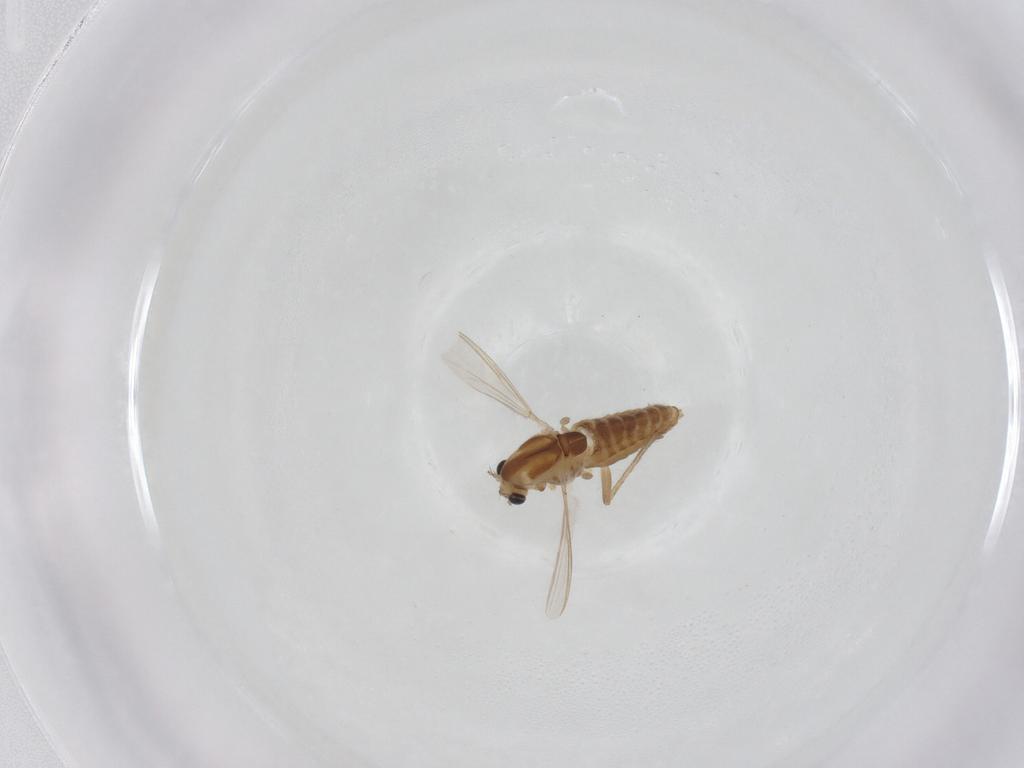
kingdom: Animalia
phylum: Arthropoda
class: Insecta
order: Diptera
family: Chironomidae
